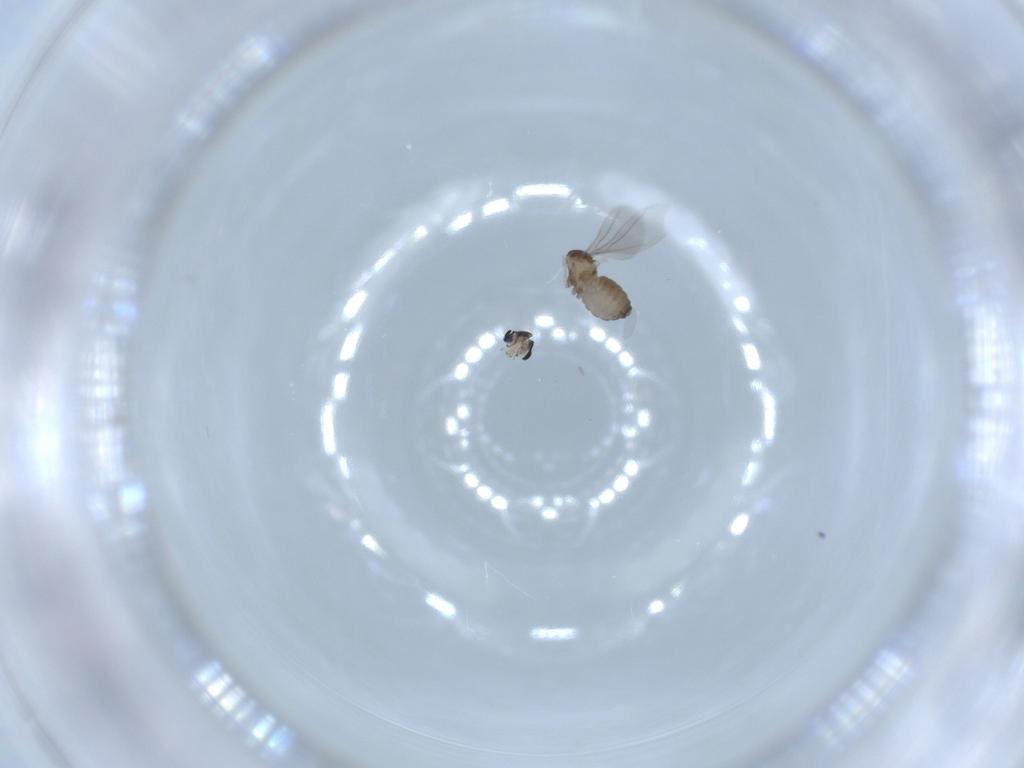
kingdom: Animalia
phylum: Arthropoda
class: Insecta
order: Diptera
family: Cecidomyiidae
